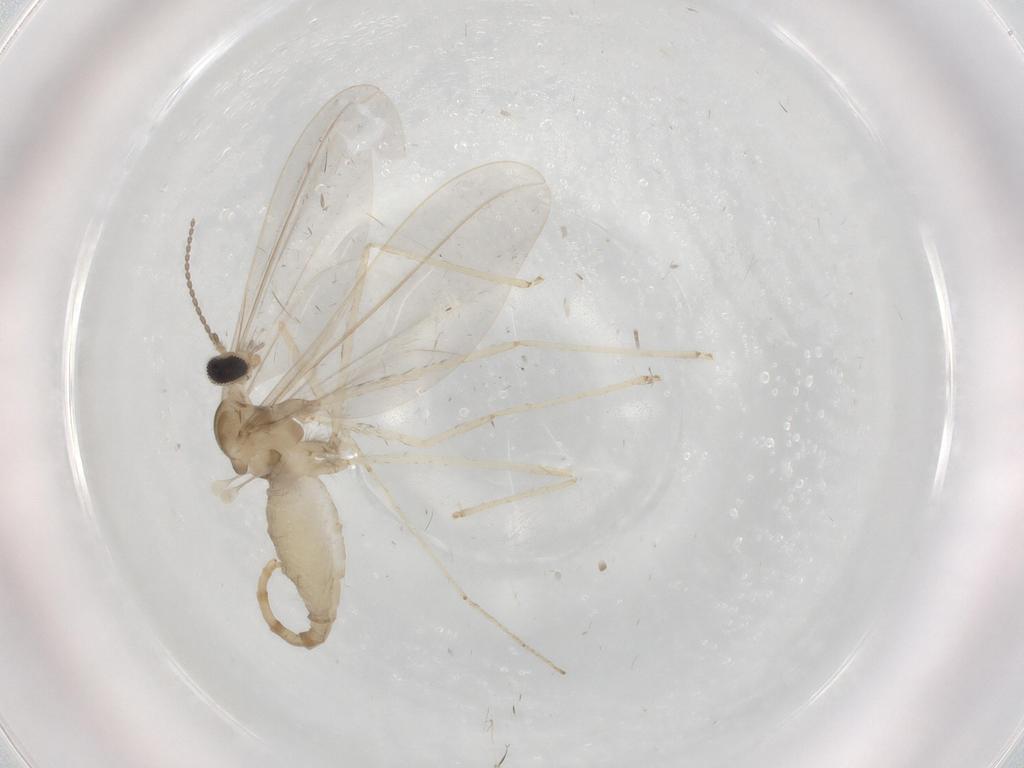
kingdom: Animalia
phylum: Arthropoda
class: Insecta
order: Diptera
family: Cecidomyiidae
